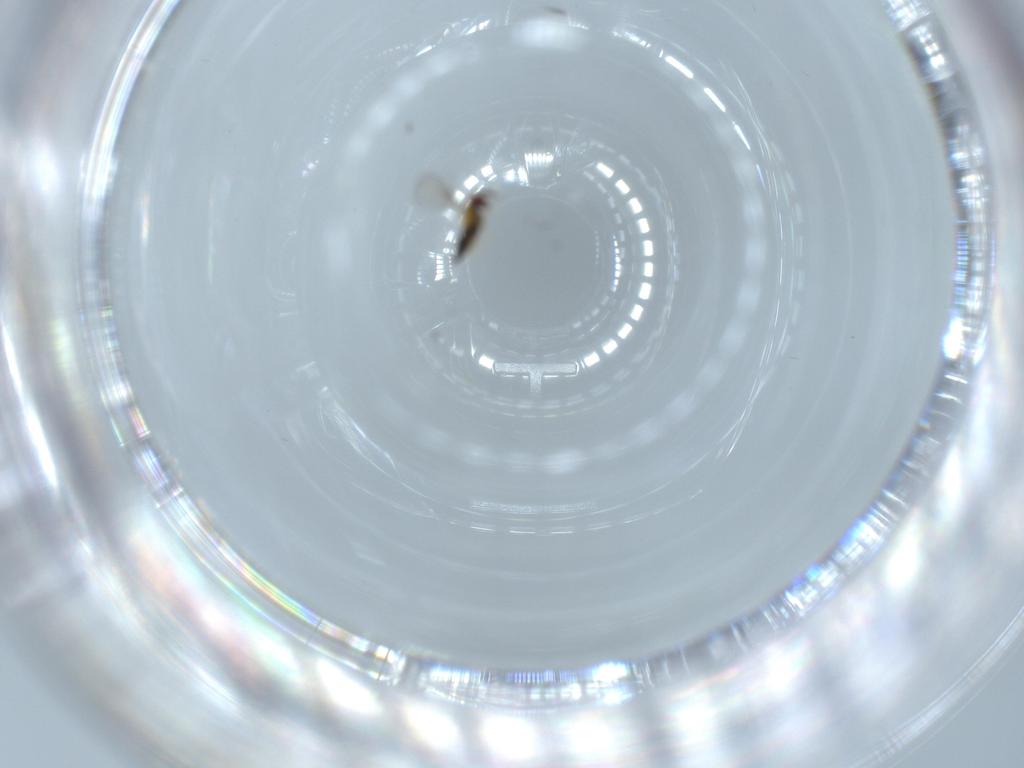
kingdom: Animalia
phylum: Arthropoda
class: Insecta
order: Hymenoptera
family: Trichogrammatidae
